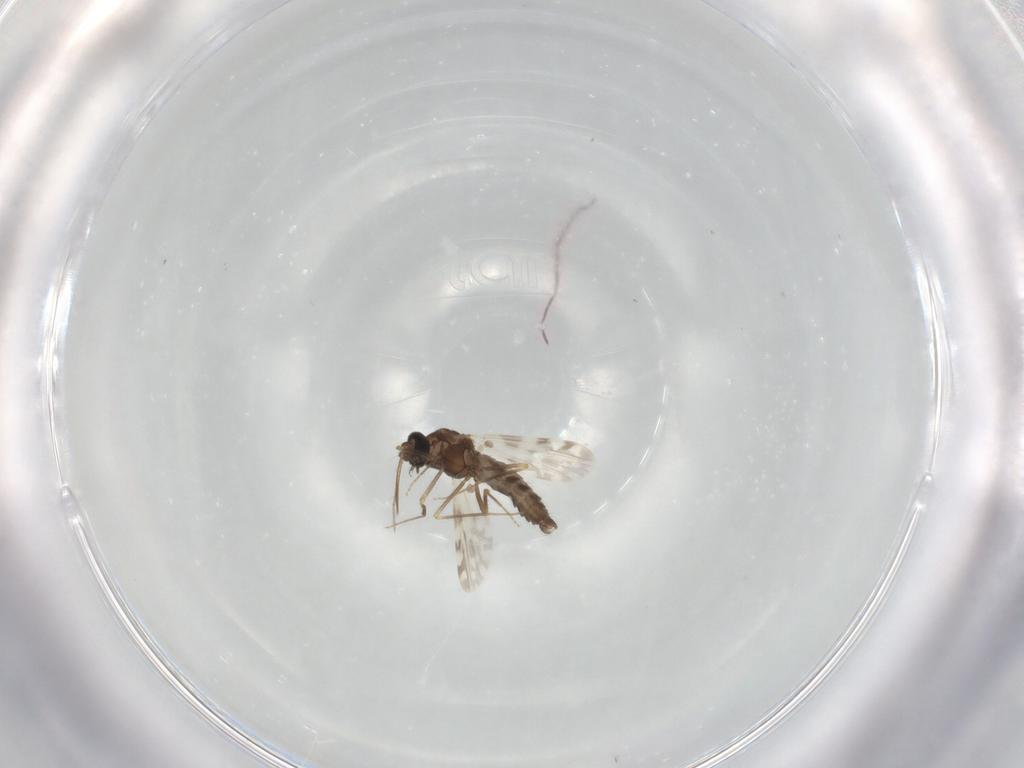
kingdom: Animalia
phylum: Arthropoda
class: Insecta
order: Diptera
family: Ceratopogonidae
